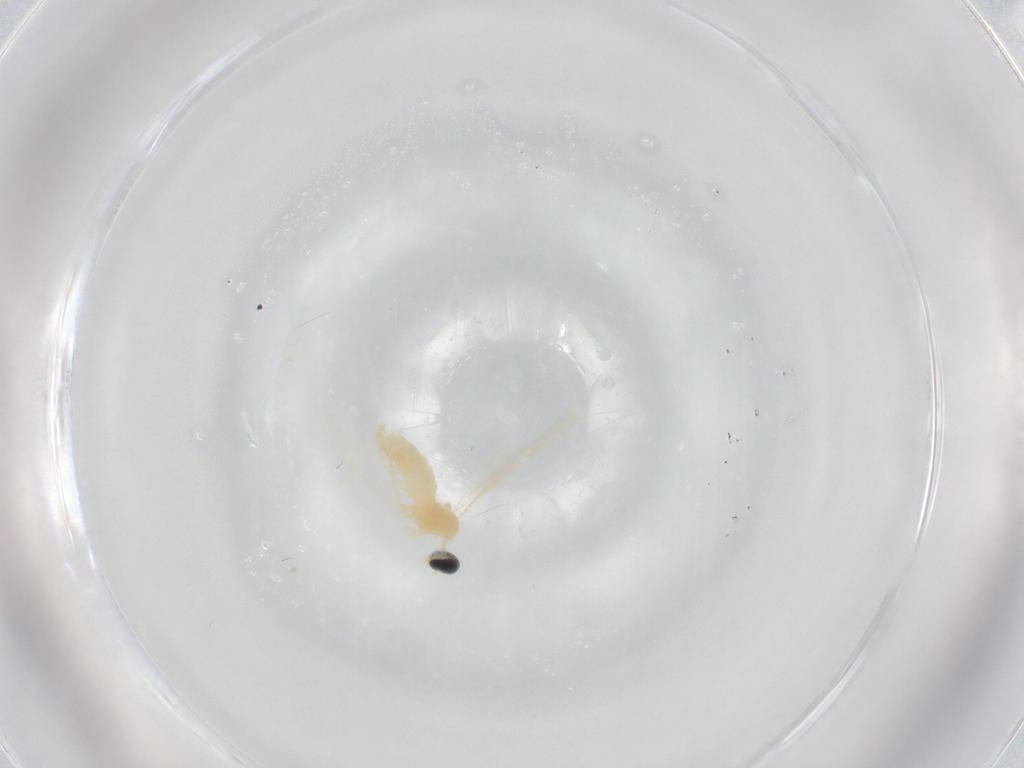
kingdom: Animalia
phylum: Arthropoda
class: Insecta
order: Diptera
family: Cecidomyiidae
